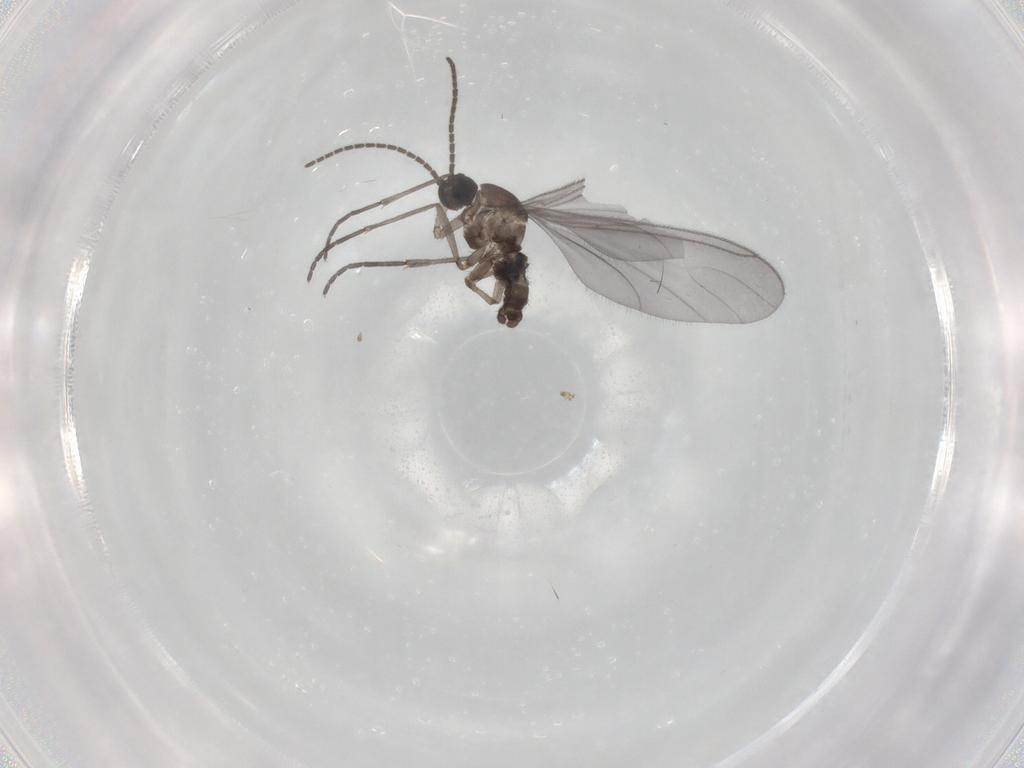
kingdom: Animalia
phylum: Arthropoda
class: Insecta
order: Diptera
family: Sciaridae
